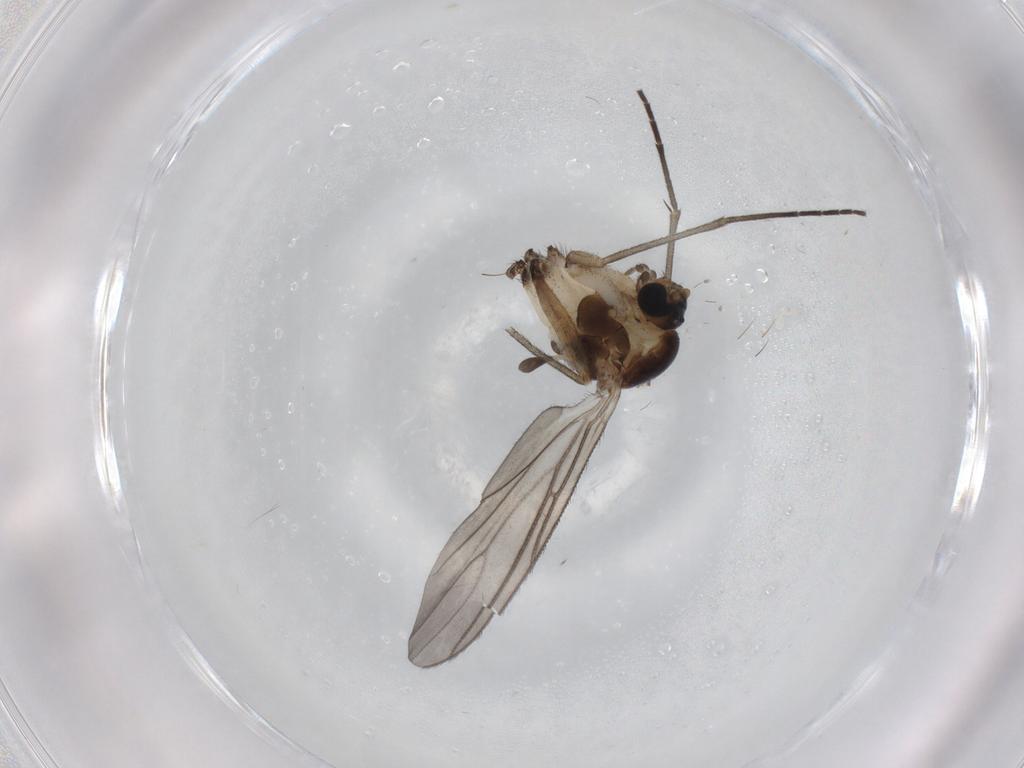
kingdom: Animalia
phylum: Arthropoda
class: Insecta
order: Diptera
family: Sciaridae
